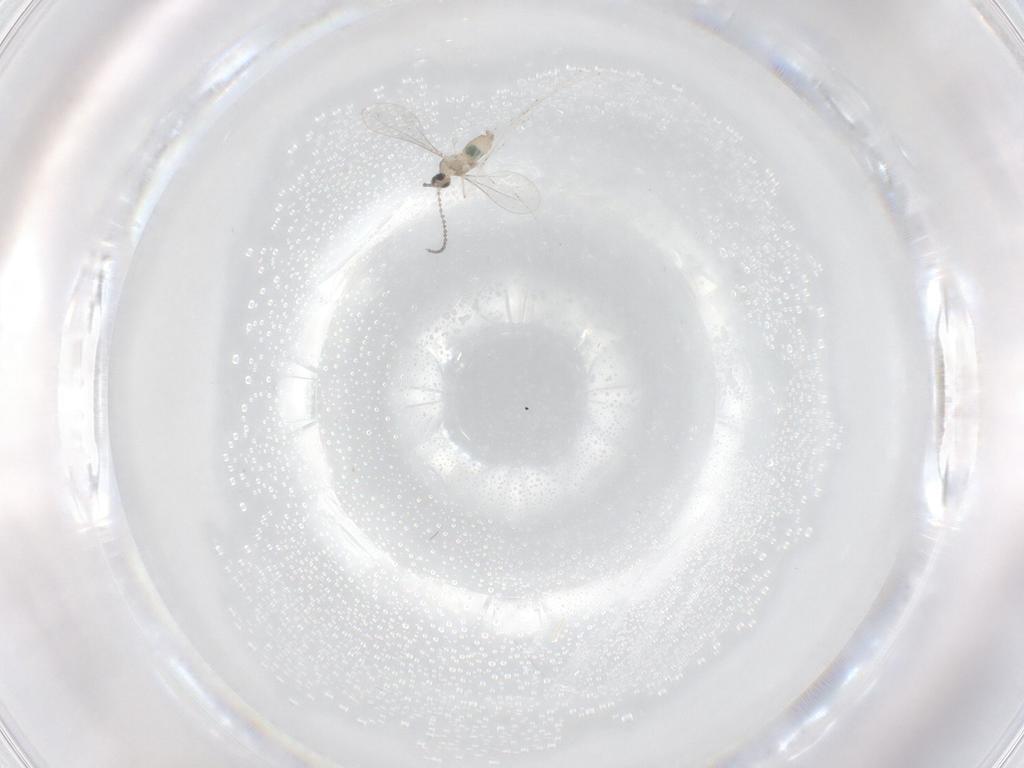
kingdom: Animalia
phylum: Arthropoda
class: Insecta
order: Diptera
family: Cecidomyiidae
